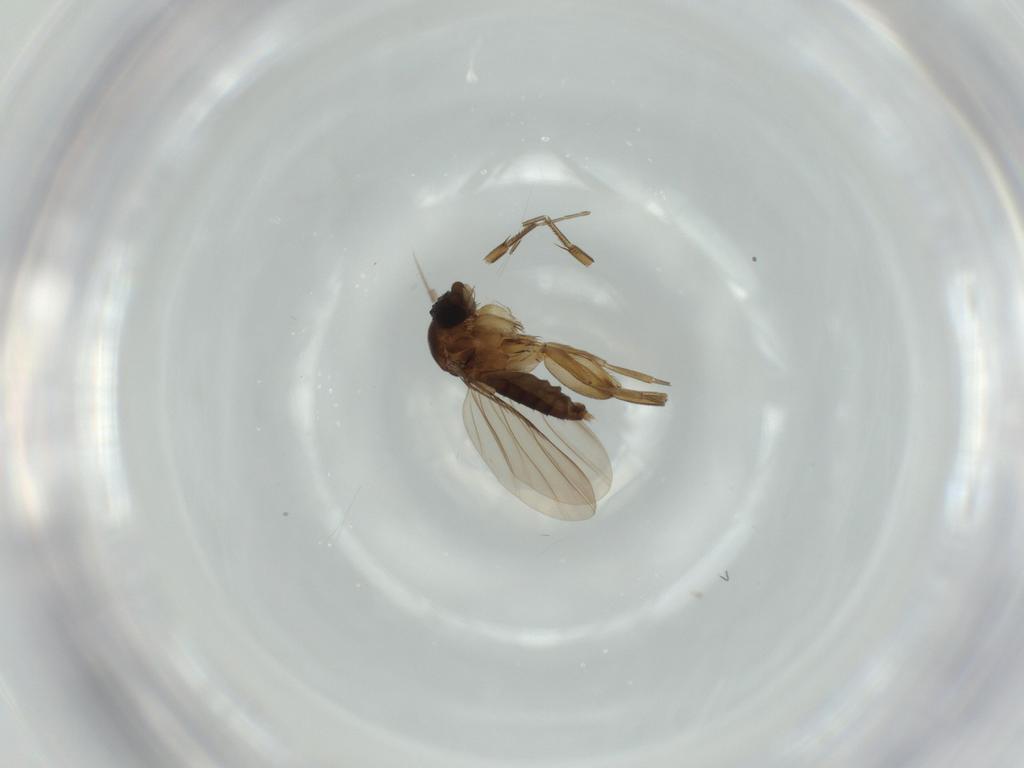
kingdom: Animalia
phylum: Arthropoda
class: Insecta
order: Diptera
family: Phoridae
